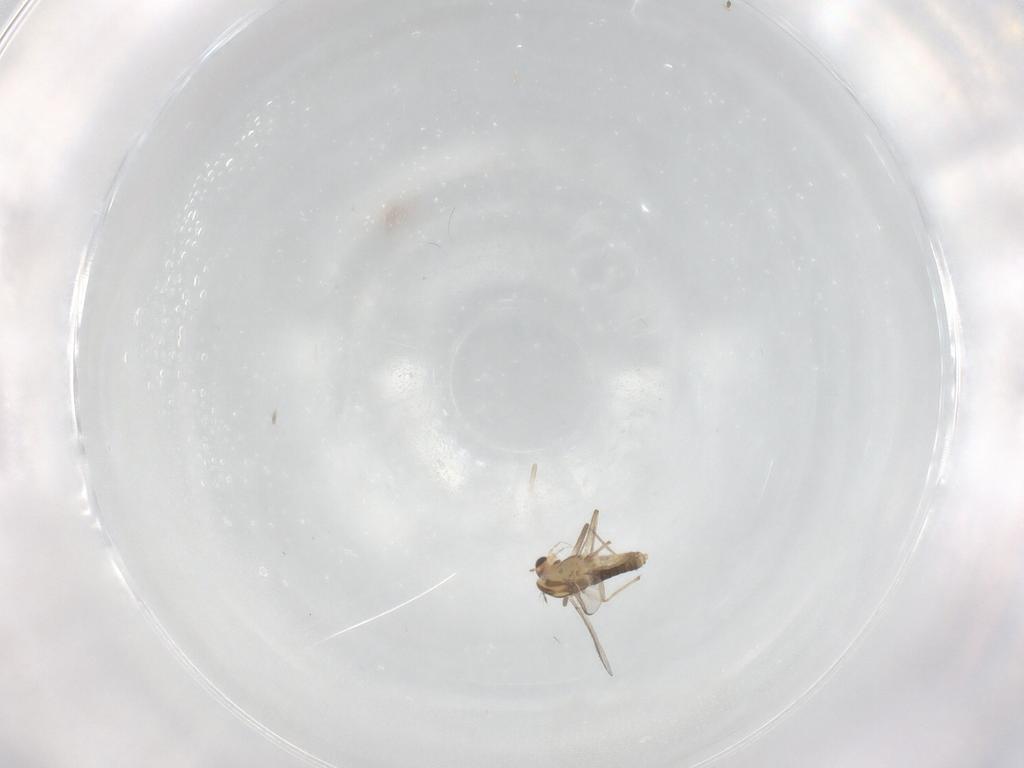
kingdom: Animalia
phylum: Arthropoda
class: Insecta
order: Diptera
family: Chironomidae
